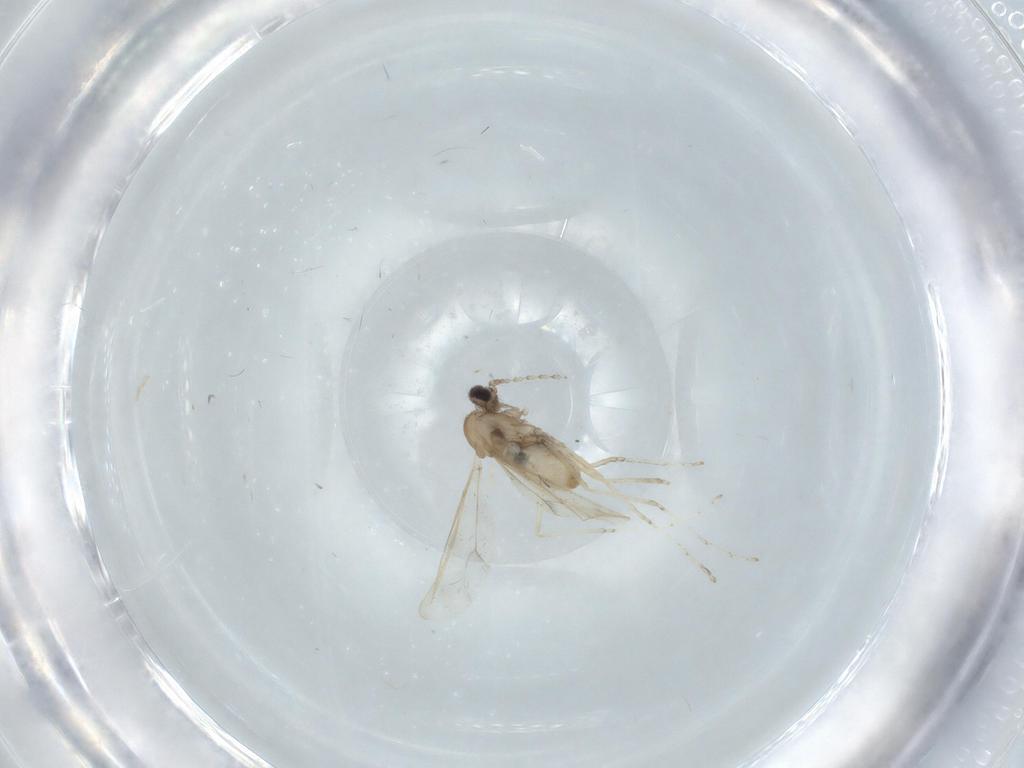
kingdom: Animalia
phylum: Arthropoda
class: Insecta
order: Diptera
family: Ceratopogonidae
